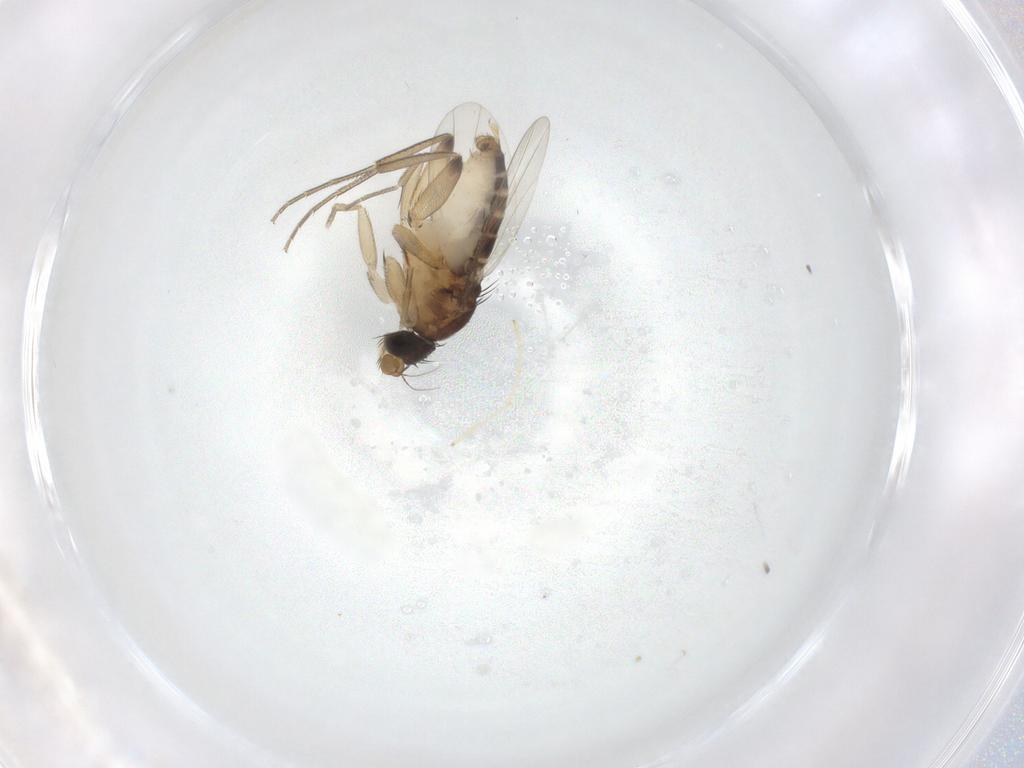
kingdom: Animalia
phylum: Arthropoda
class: Insecta
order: Diptera
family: Phoridae
